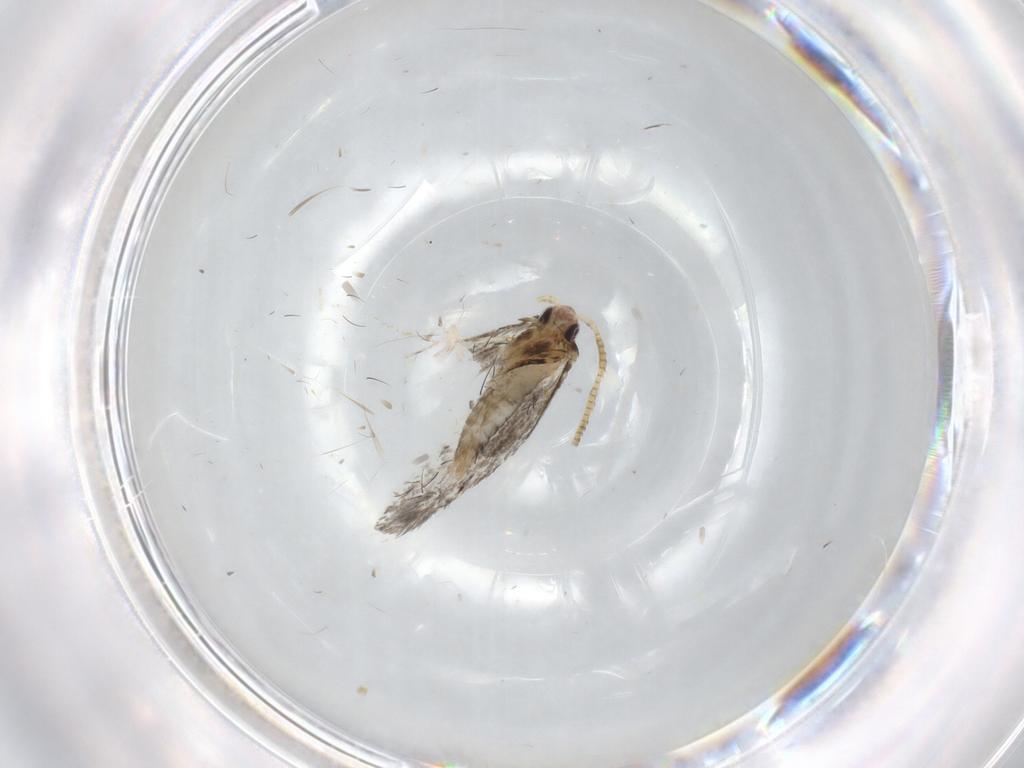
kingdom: Animalia
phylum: Arthropoda
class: Insecta
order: Lepidoptera
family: Tineidae
